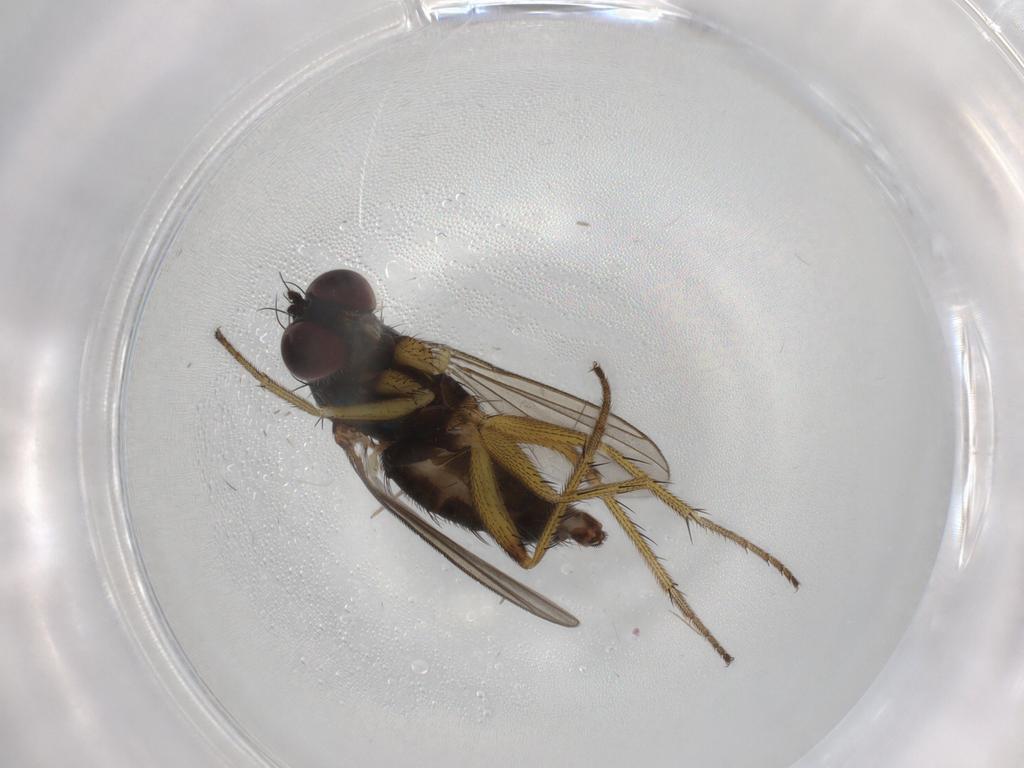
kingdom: Animalia
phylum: Arthropoda
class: Insecta
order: Diptera
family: Dolichopodidae
